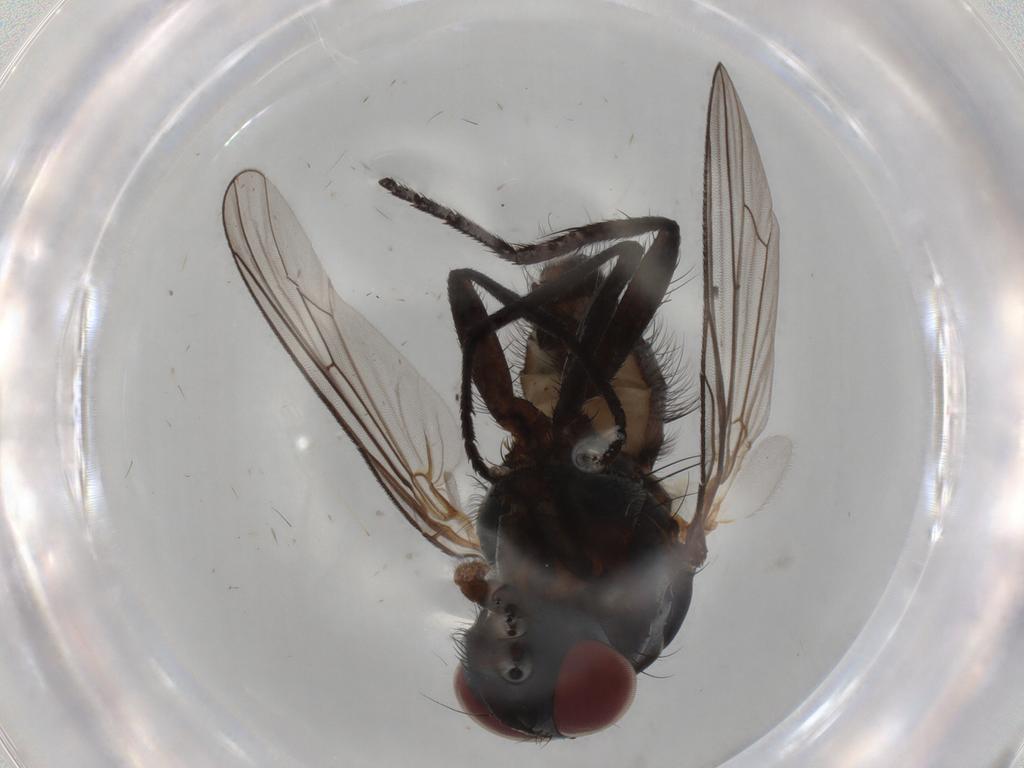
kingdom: Animalia
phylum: Arthropoda
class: Insecta
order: Diptera
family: Anthomyiidae
